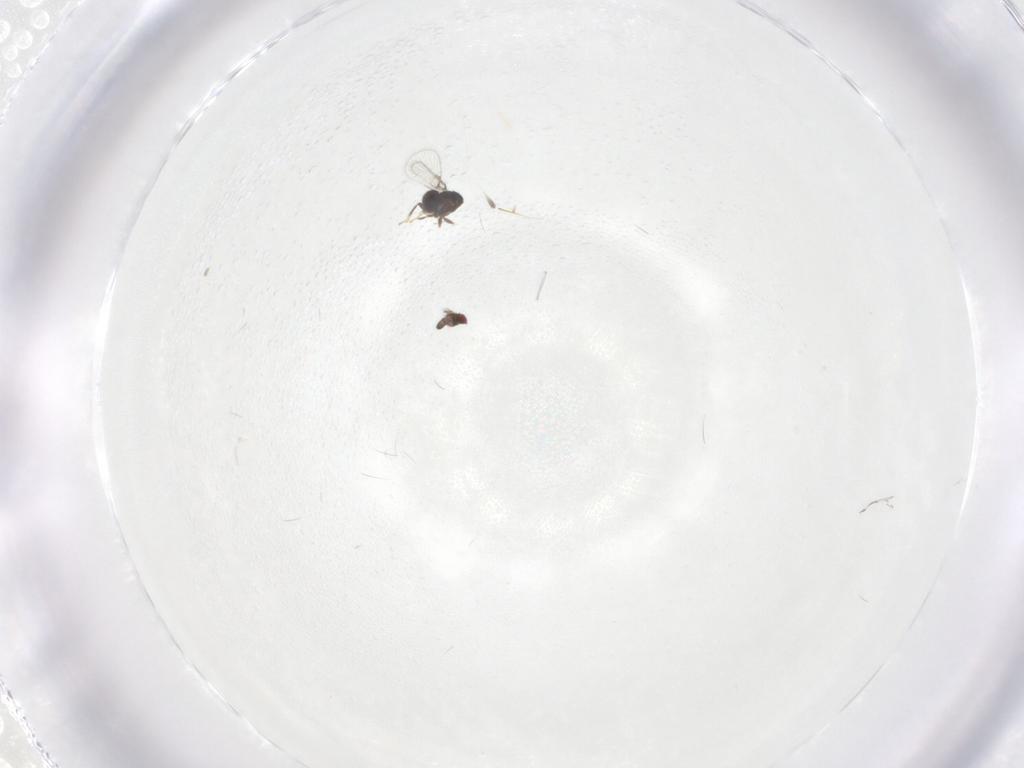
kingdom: Animalia
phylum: Arthropoda
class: Insecta
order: Hymenoptera
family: Trichogrammatidae
